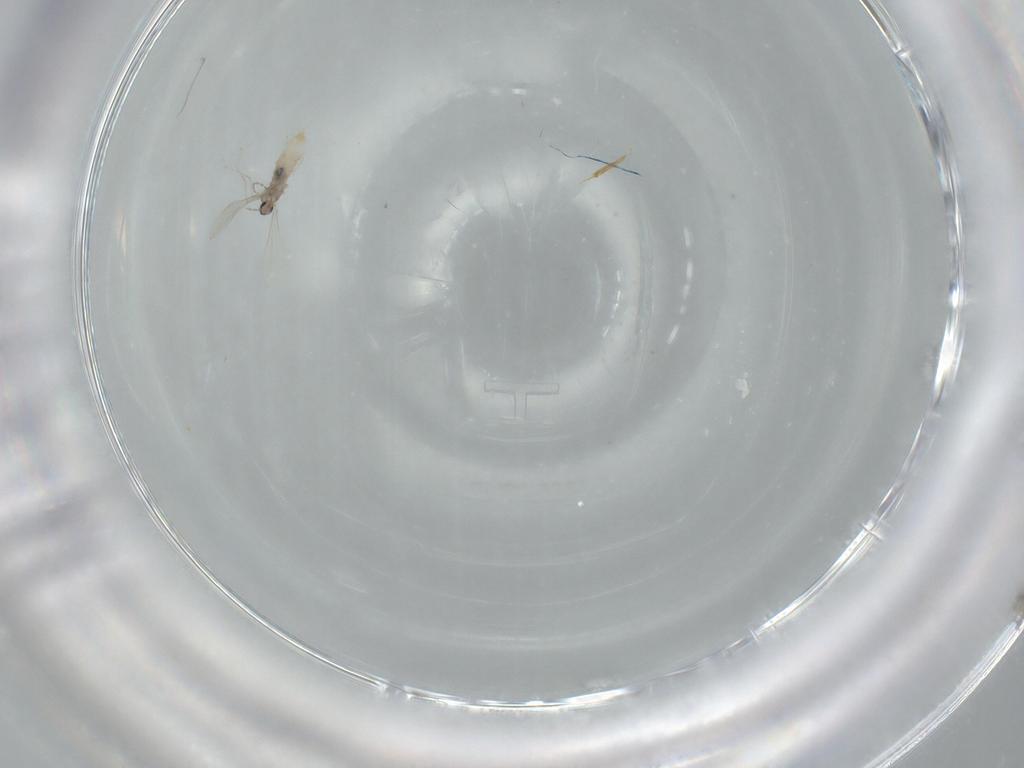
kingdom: Animalia
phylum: Arthropoda
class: Insecta
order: Diptera
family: Cecidomyiidae
